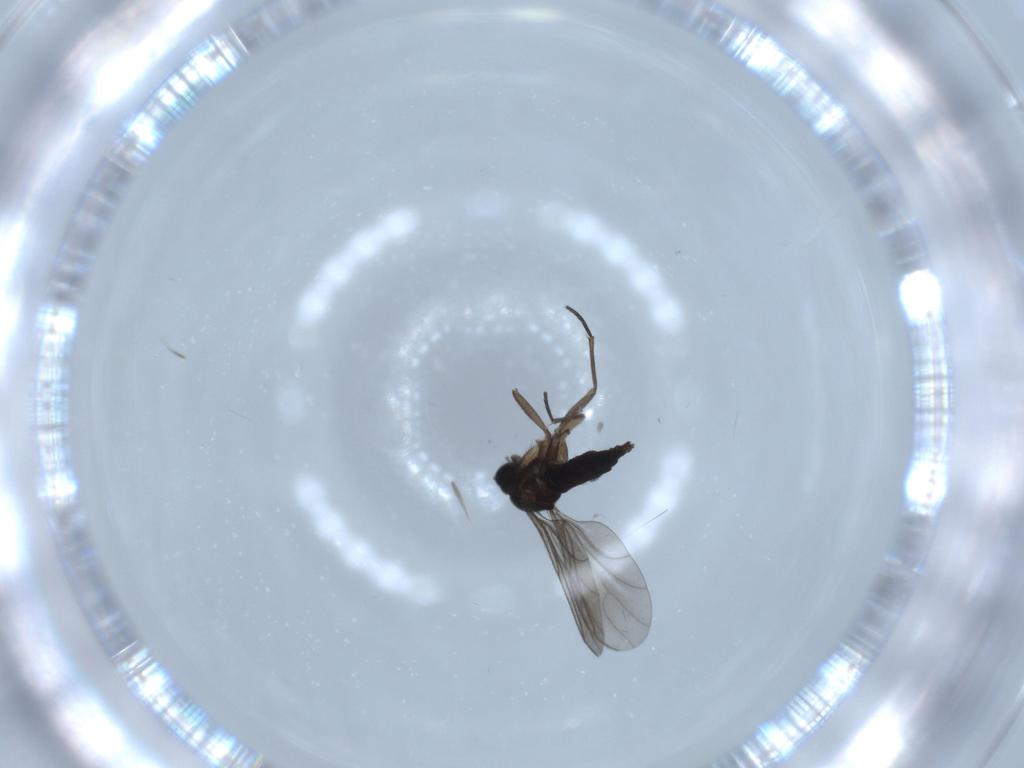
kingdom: Animalia
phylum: Arthropoda
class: Insecta
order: Diptera
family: Sciaridae
